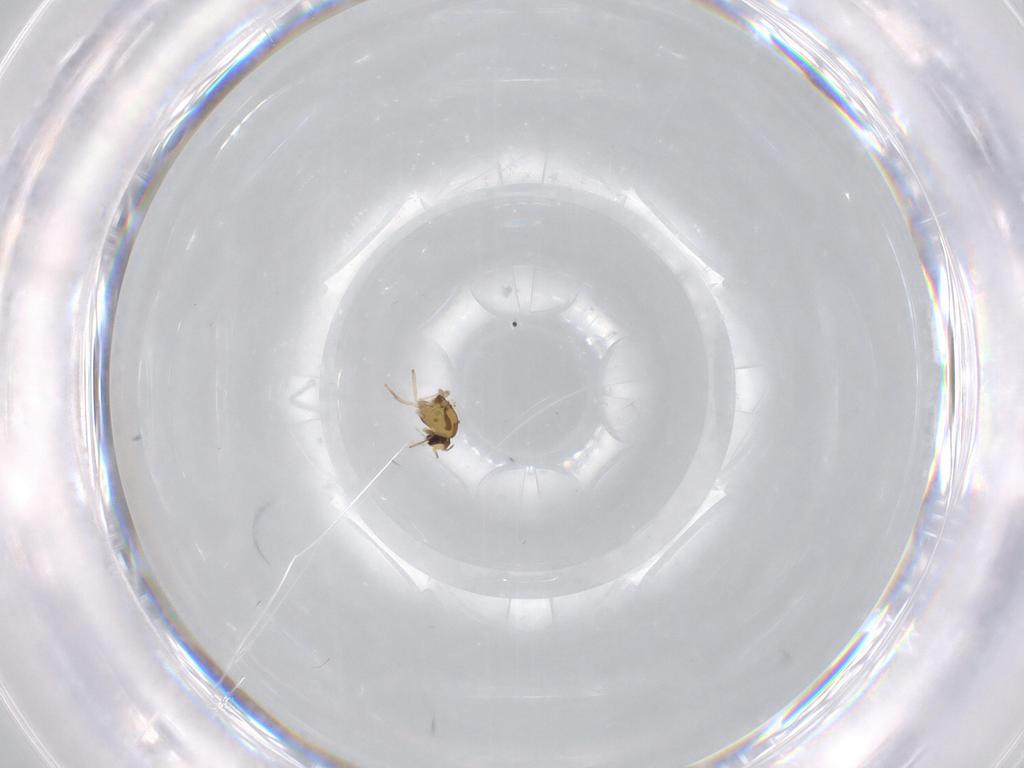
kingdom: Animalia
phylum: Arthropoda
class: Insecta
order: Diptera
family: Chironomidae
